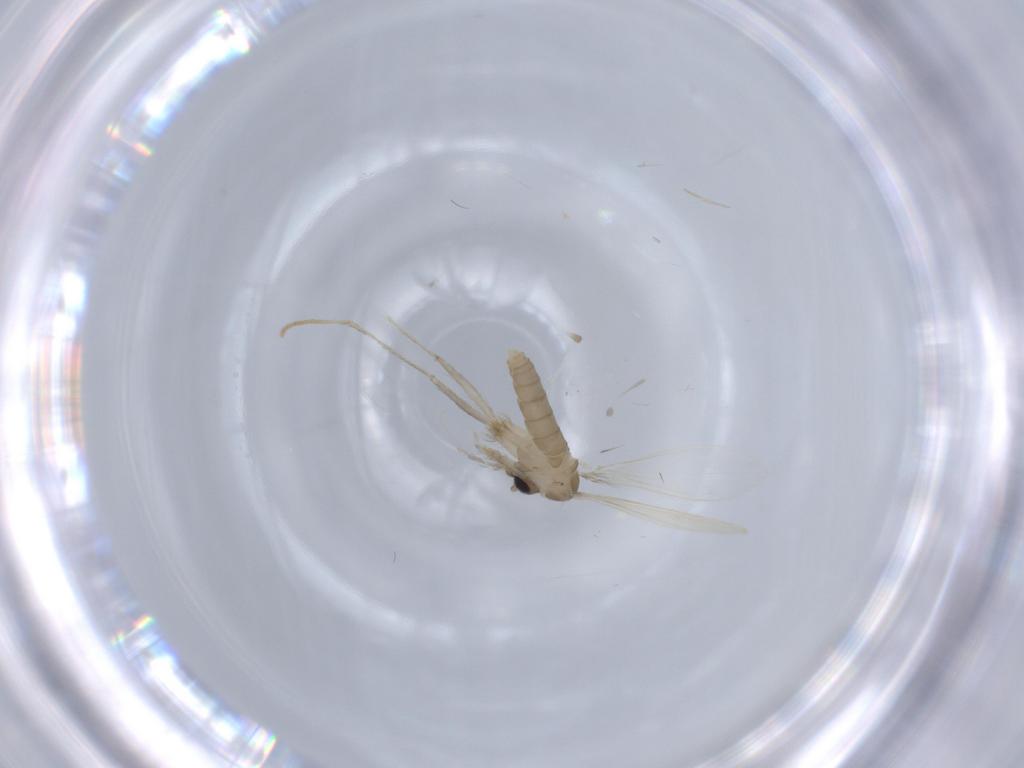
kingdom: Animalia
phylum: Arthropoda
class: Insecta
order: Diptera
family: Psychodidae
